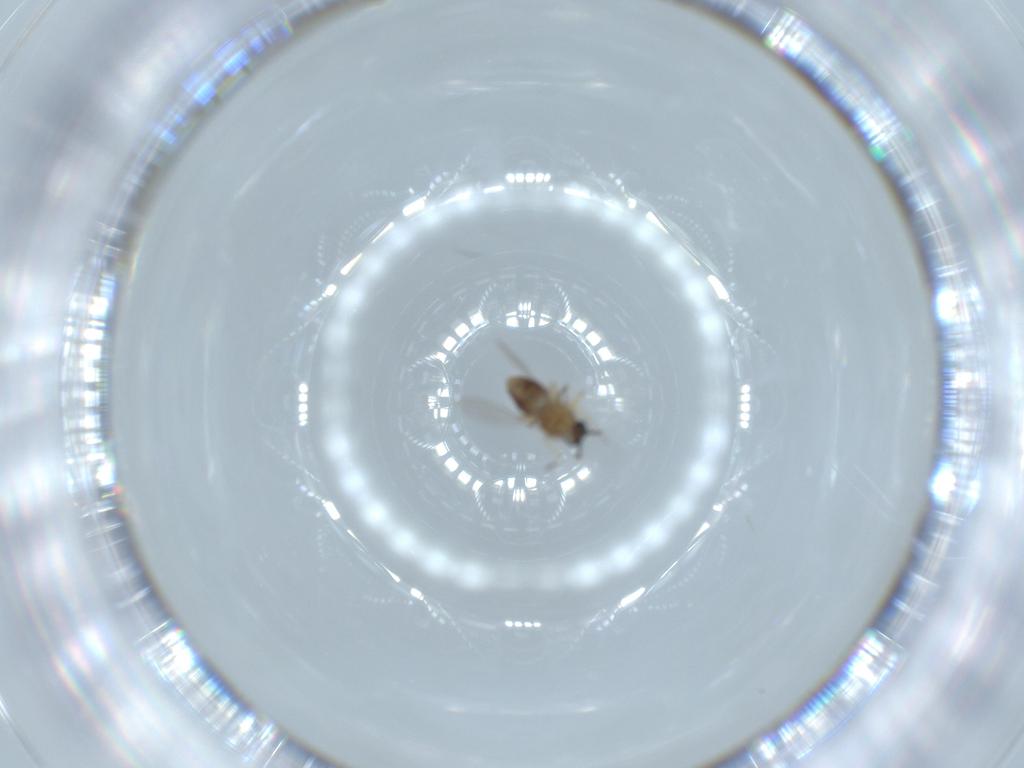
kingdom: Animalia
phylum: Arthropoda
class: Insecta
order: Diptera
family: Ceratopogonidae
